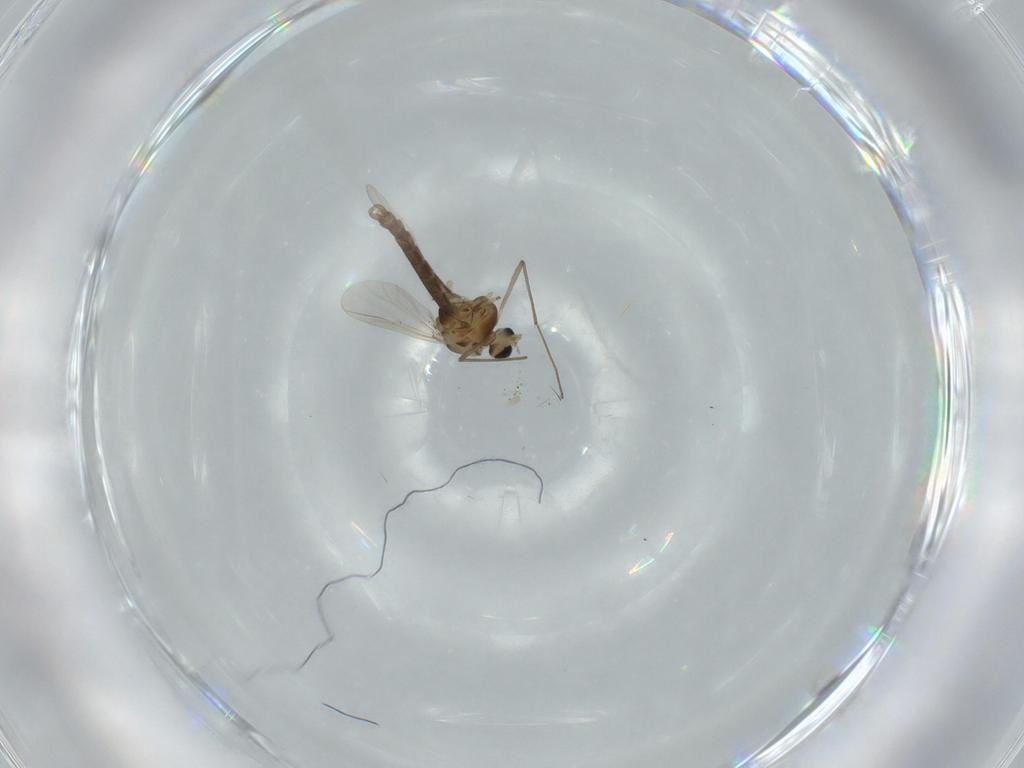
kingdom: Animalia
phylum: Arthropoda
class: Insecta
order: Diptera
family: Chironomidae
